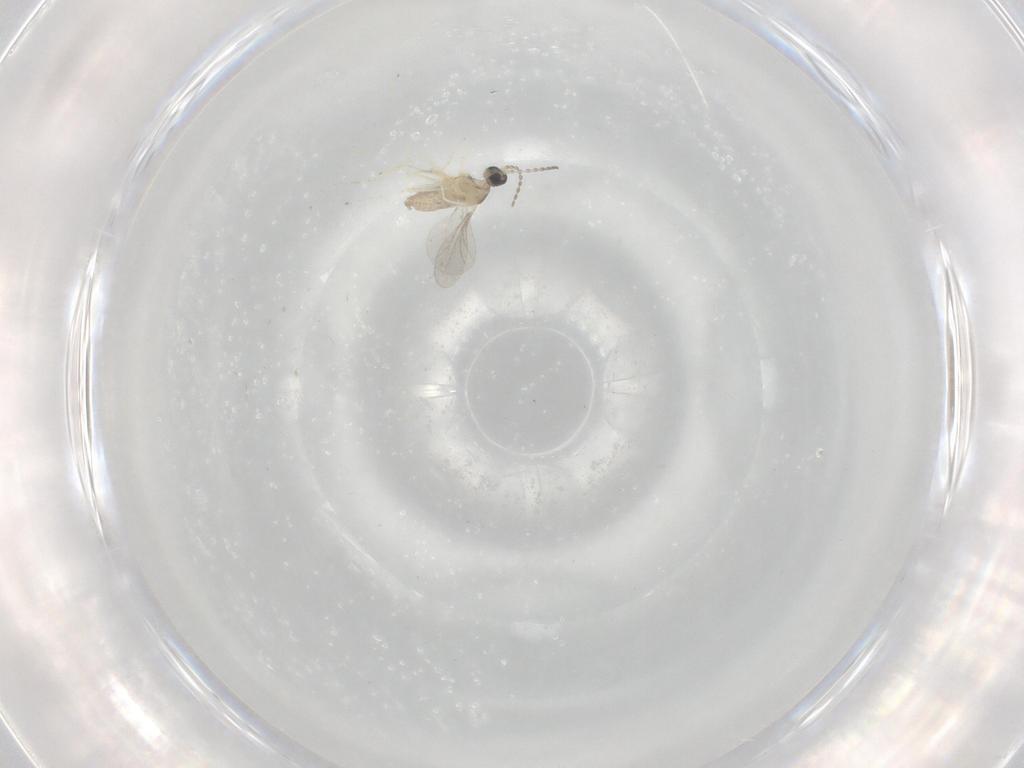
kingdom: Animalia
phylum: Arthropoda
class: Insecta
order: Diptera
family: Cecidomyiidae
